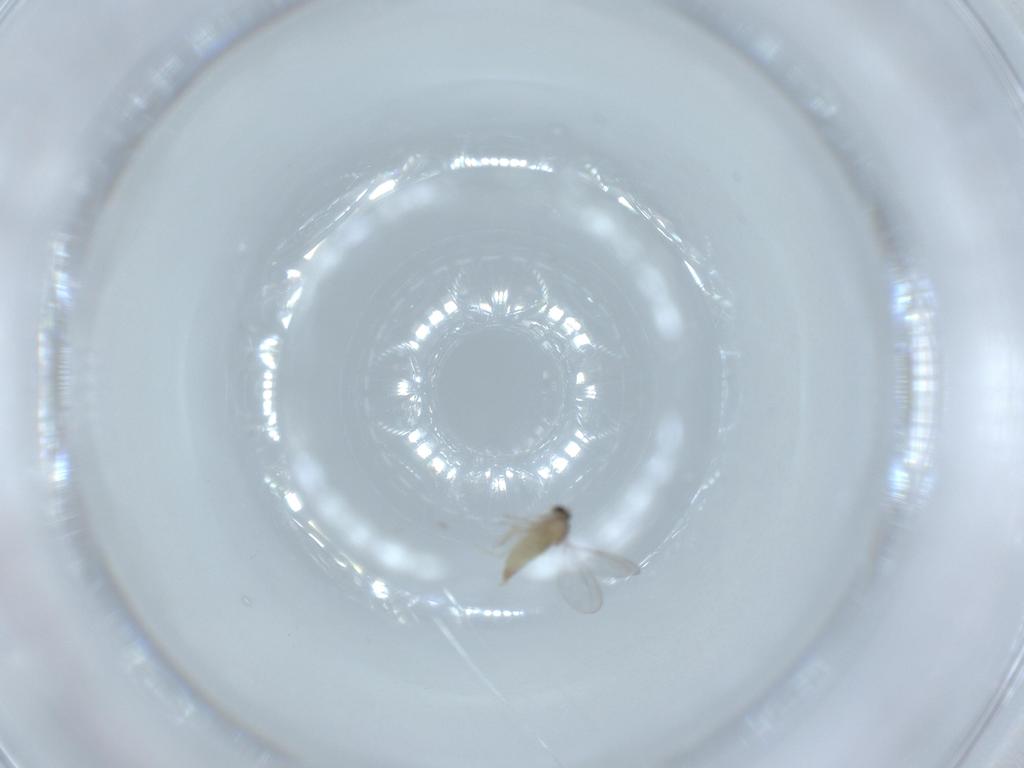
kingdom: Animalia
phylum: Arthropoda
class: Insecta
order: Diptera
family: Cecidomyiidae
